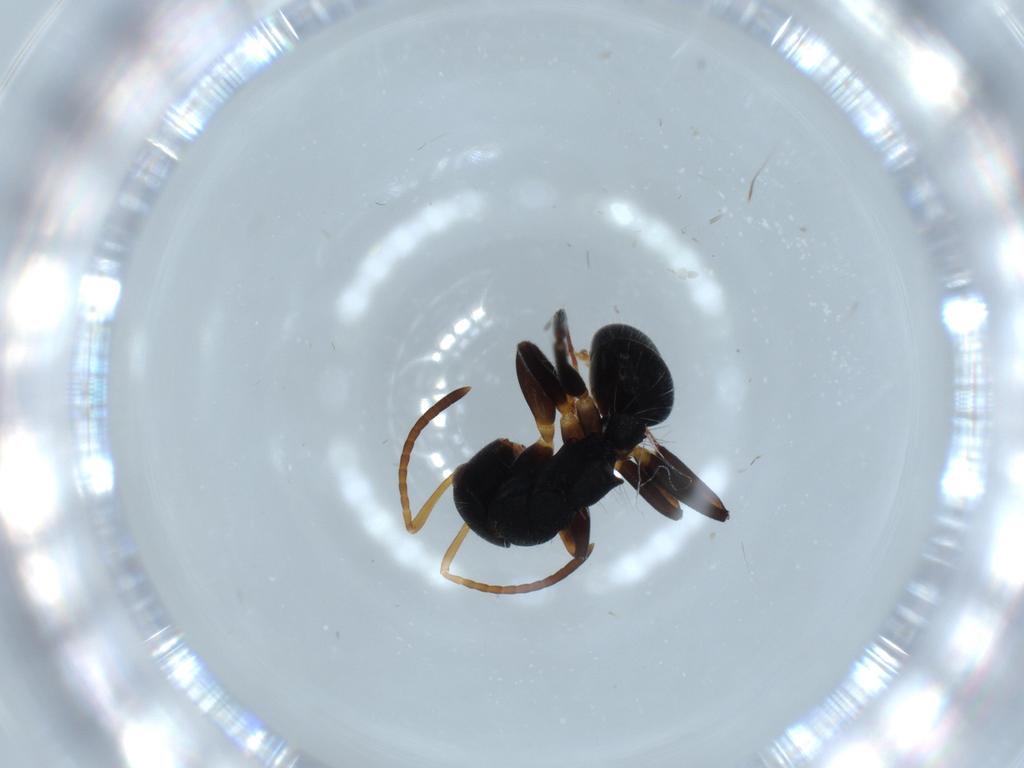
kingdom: Animalia
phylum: Arthropoda
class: Insecta
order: Hymenoptera
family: Formicidae
